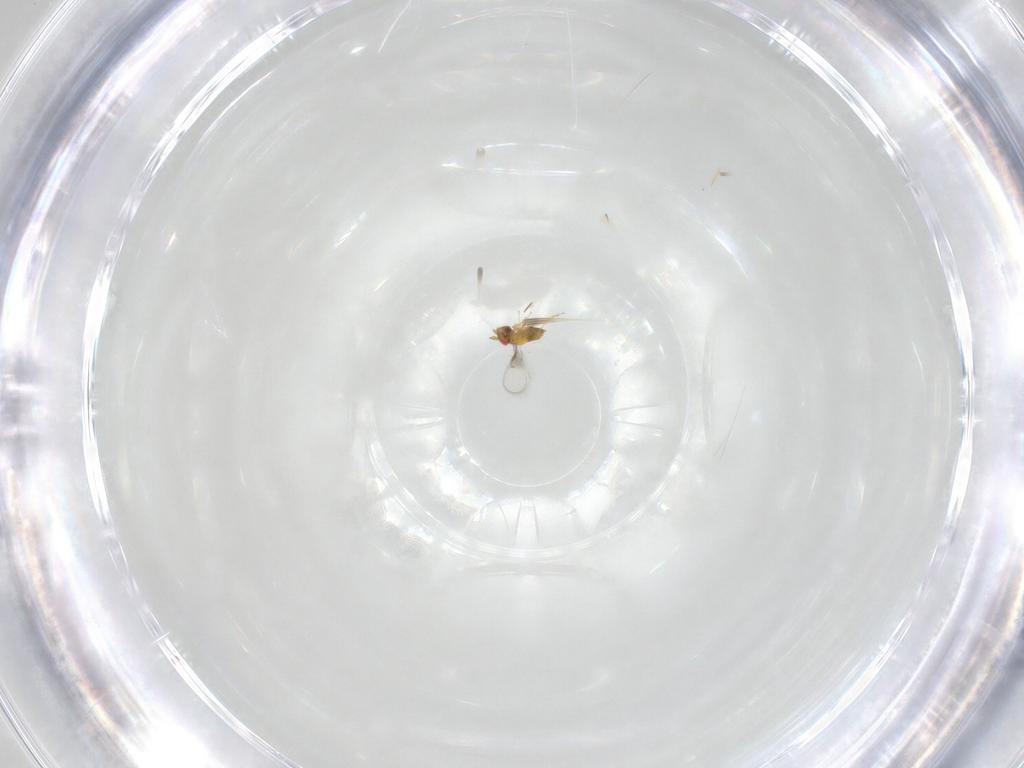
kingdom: Animalia
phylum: Arthropoda
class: Insecta
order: Hymenoptera
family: Trichogrammatidae
